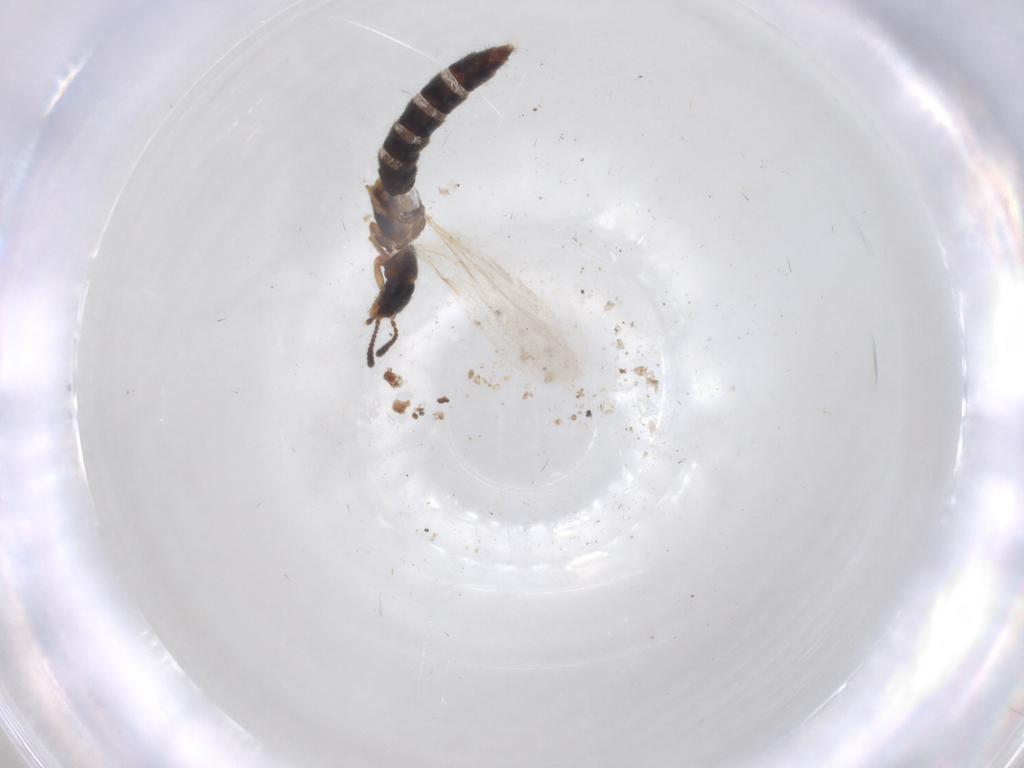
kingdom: Animalia
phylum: Arthropoda
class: Insecta
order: Coleoptera
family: Staphylinidae
